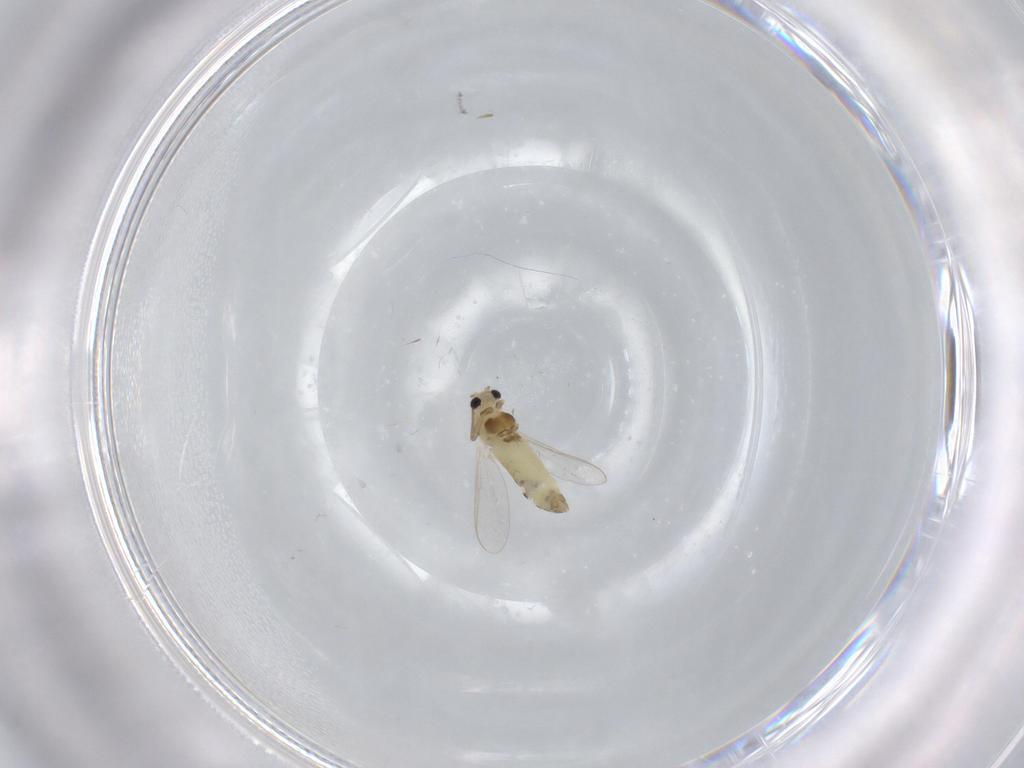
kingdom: Animalia
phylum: Arthropoda
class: Insecta
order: Diptera
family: Chironomidae
